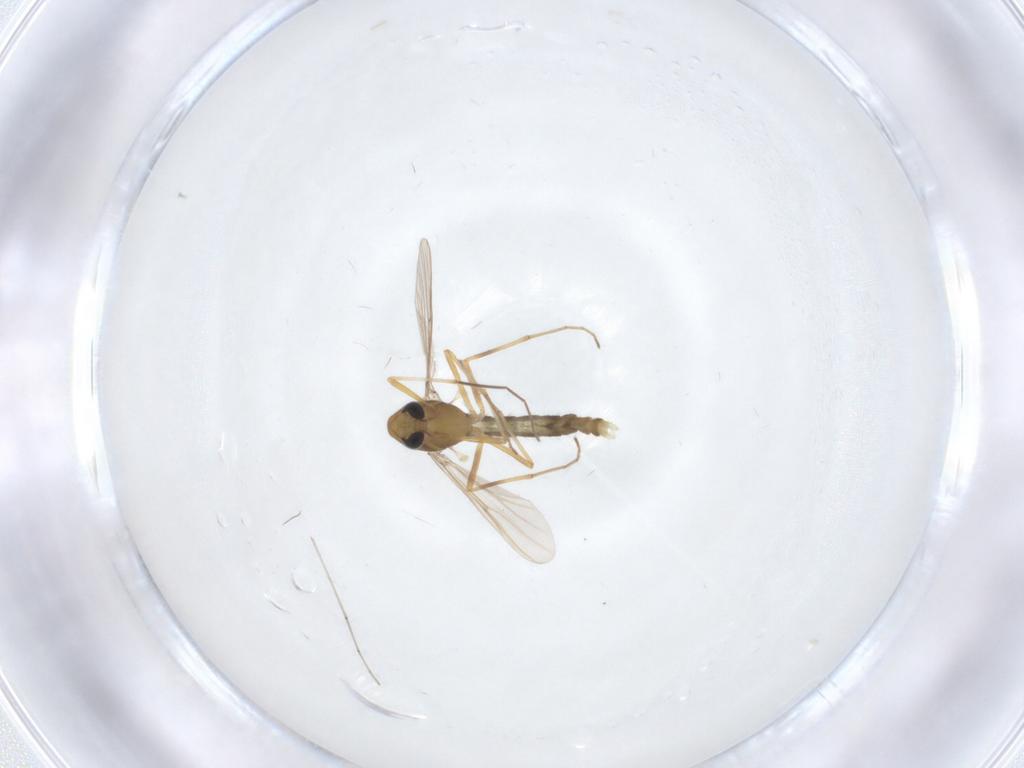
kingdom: Animalia
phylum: Arthropoda
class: Insecta
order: Diptera
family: Chironomidae
